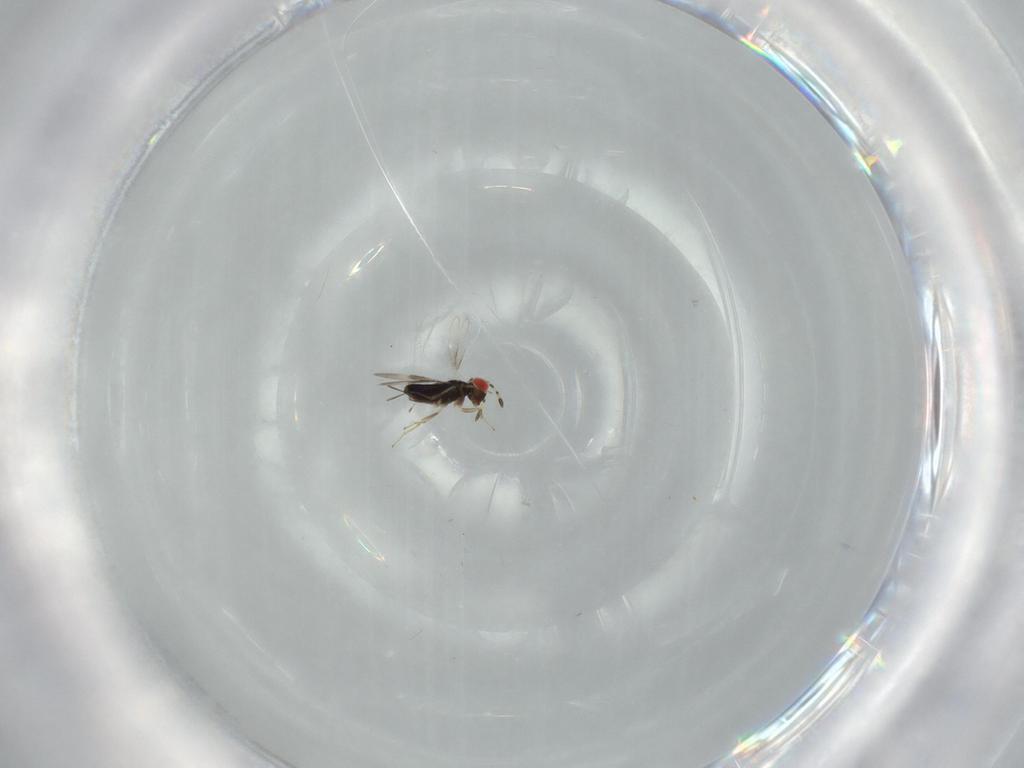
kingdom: Animalia
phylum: Arthropoda
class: Insecta
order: Hymenoptera
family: Azotidae
